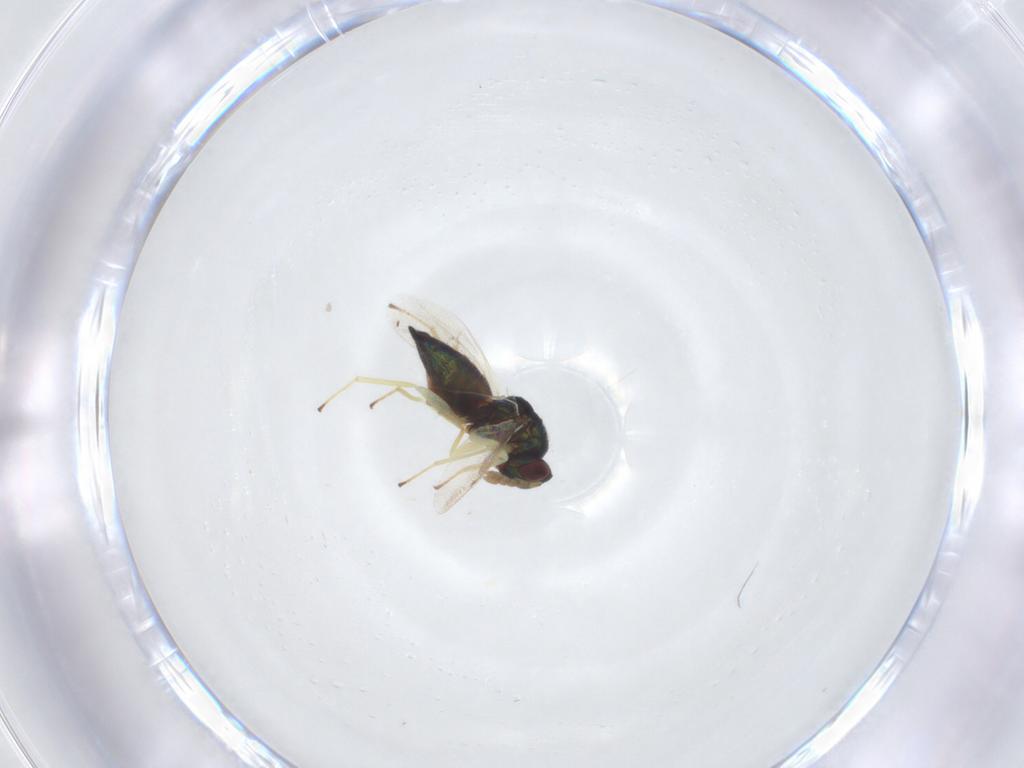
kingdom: Animalia
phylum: Arthropoda
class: Insecta
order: Hymenoptera
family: Eulophidae
